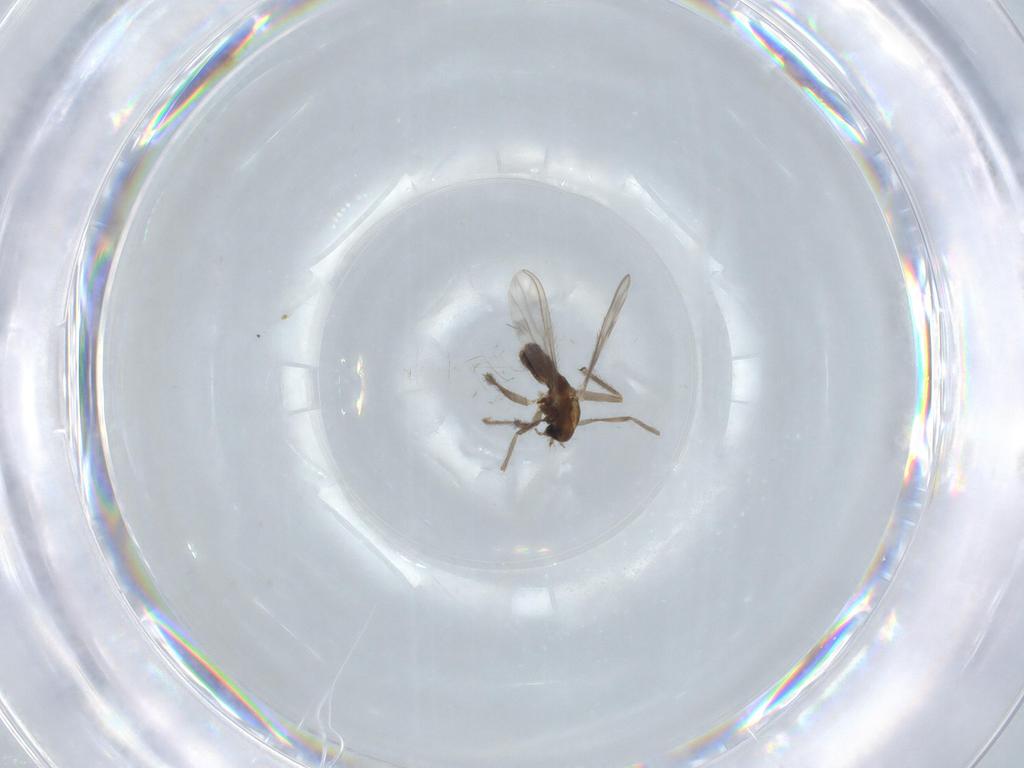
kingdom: Animalia
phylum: Arthropoda
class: Insecta
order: Diptera
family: Chironomidae
